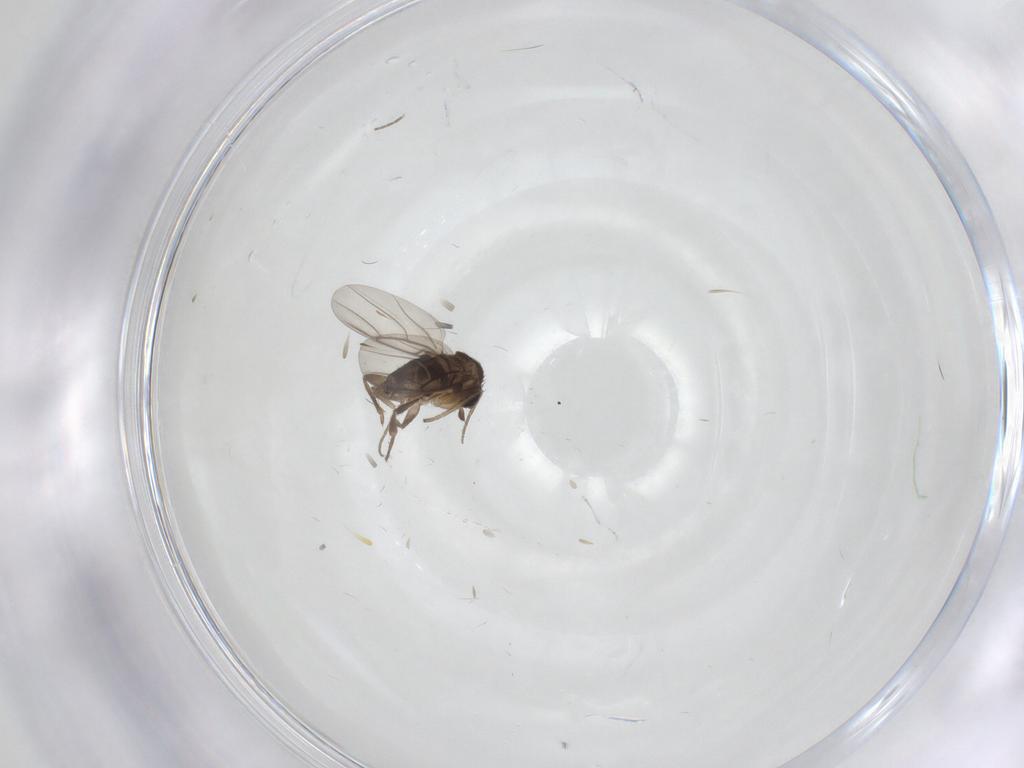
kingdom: Animalia
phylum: Arthropoda
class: Insecta
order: Diptera
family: Phoridae
